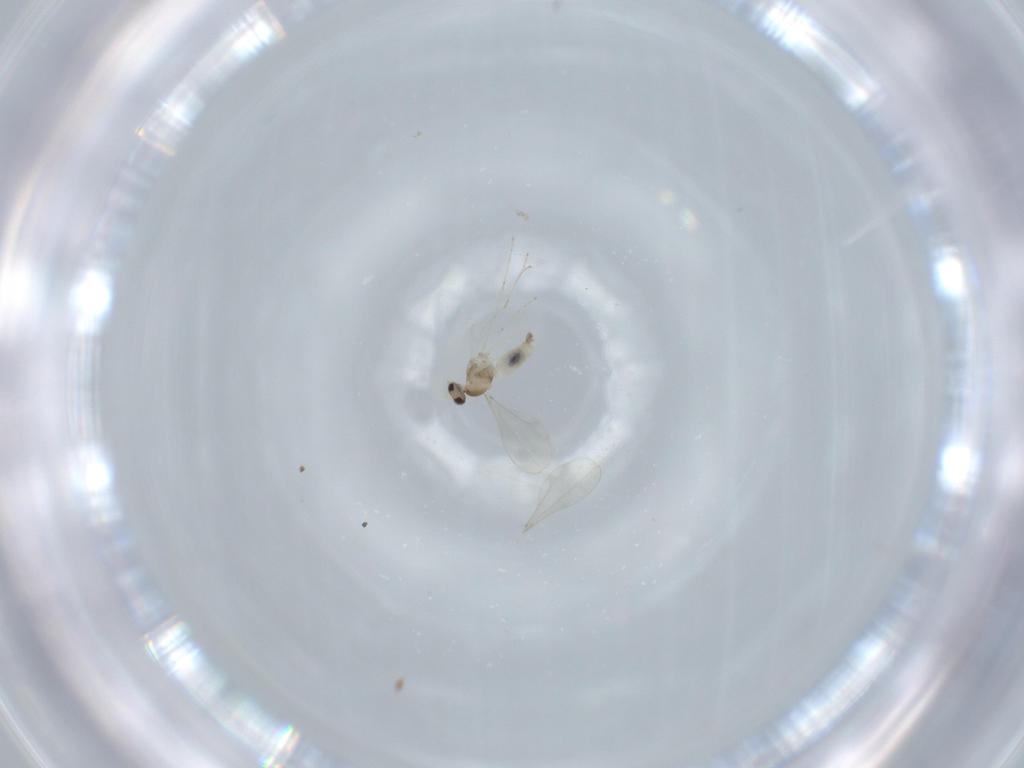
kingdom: Animalia
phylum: Arthropoda
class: Insecta
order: Diptera
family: Cecidomyiidae
